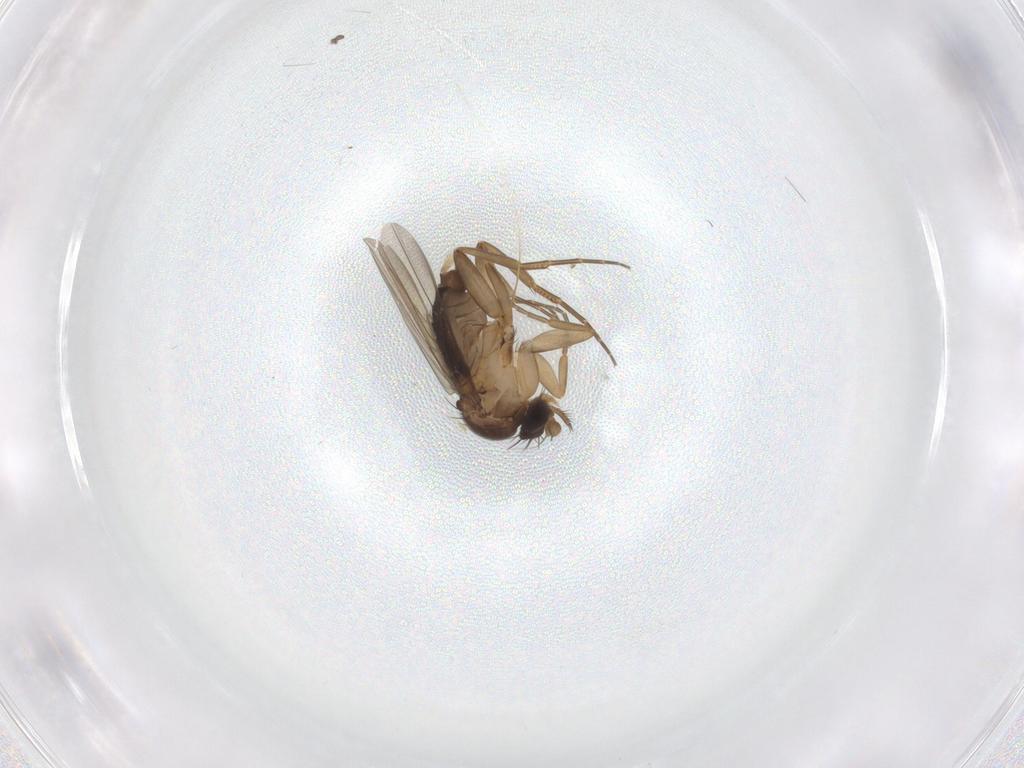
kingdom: Animalia
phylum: Arthropoda
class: Insecta
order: Diptera
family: Phoridae
